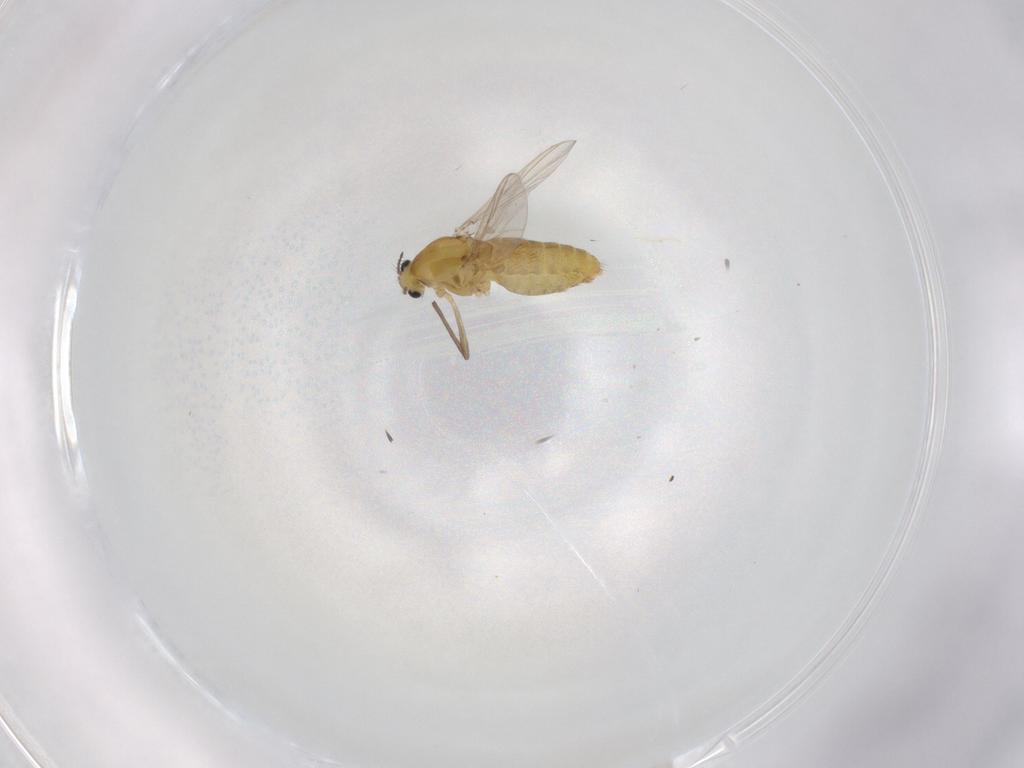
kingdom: Animalia
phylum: Arthropoda
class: Insecta
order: Diptera
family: Chironomidae
